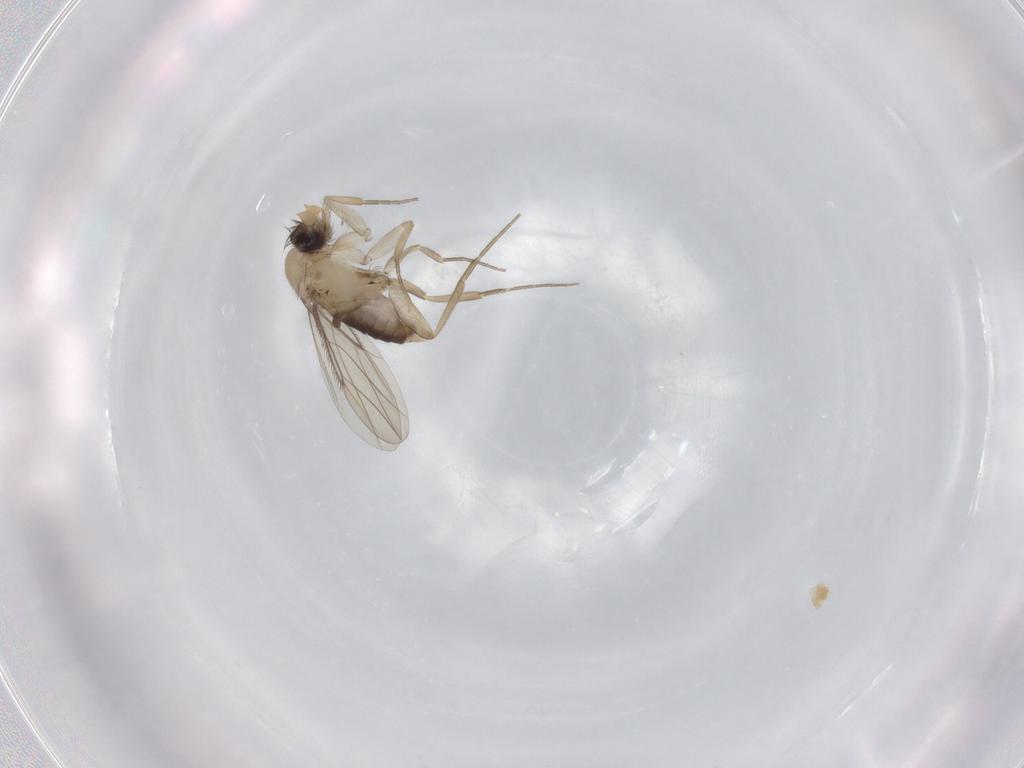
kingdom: Animalia
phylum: Arthropoda
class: Insecta
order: Diptera
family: Phoridae
